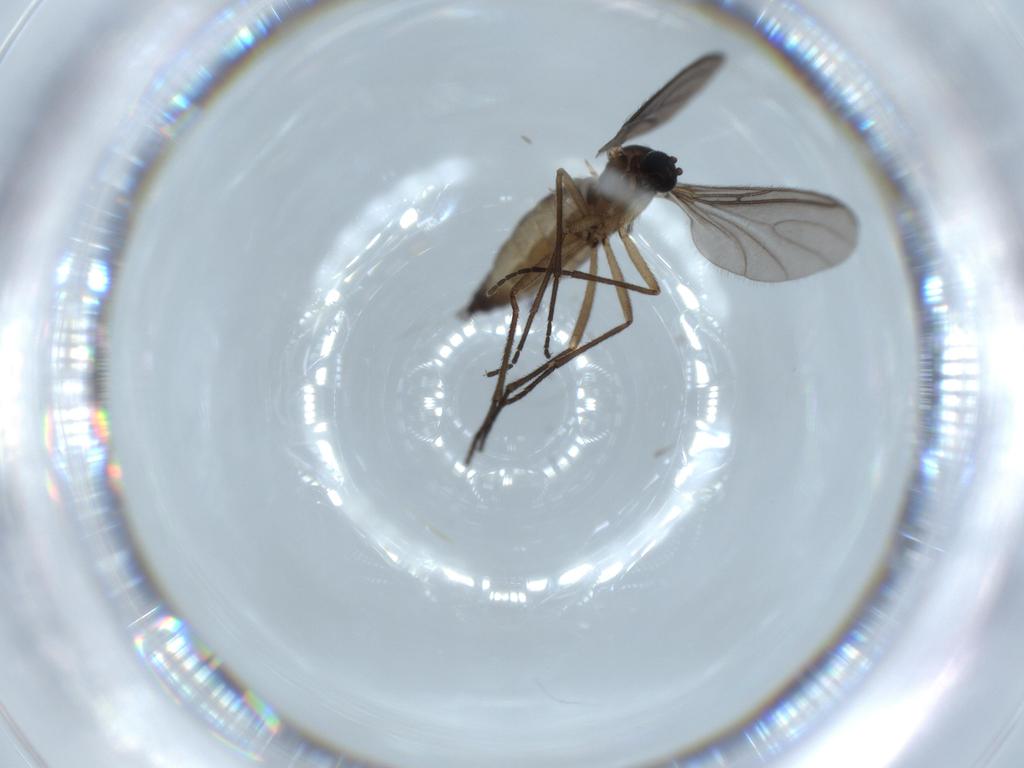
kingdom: Animalia
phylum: Arthropoda
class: Insecta
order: Diptera
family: Sciaridae
